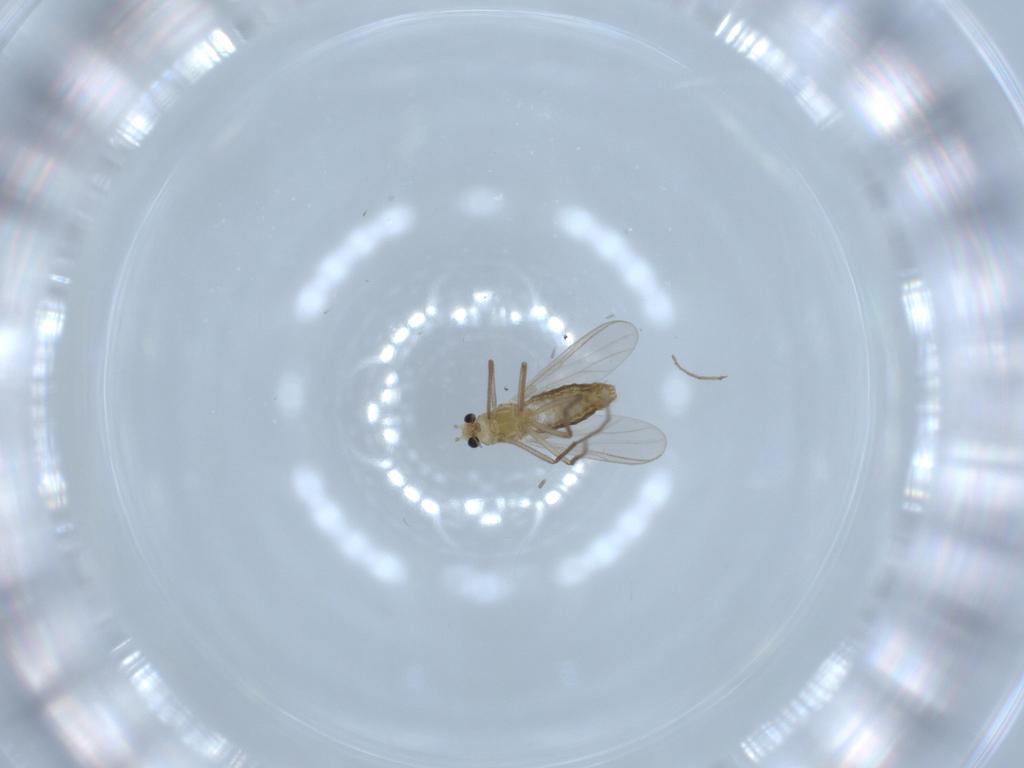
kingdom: Animalia
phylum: Arthropoda
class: Insecta
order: Diptera
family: Chironomidae
